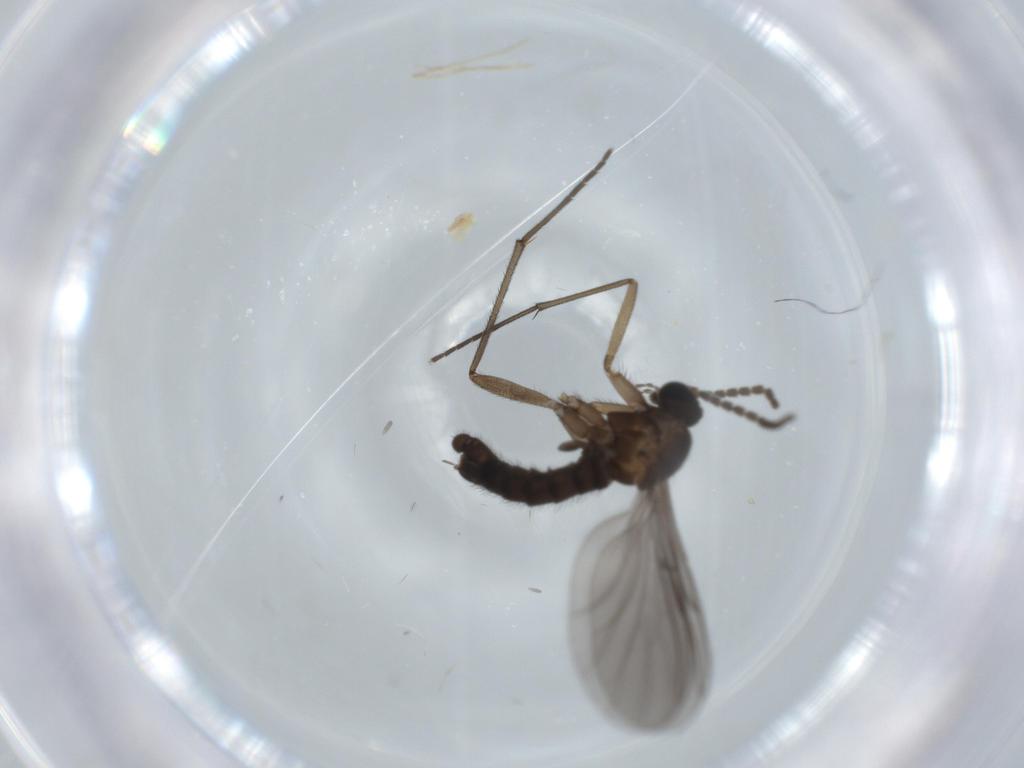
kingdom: Animalia
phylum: Arthropoda
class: Insecta
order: Diptera
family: Sciaridae
